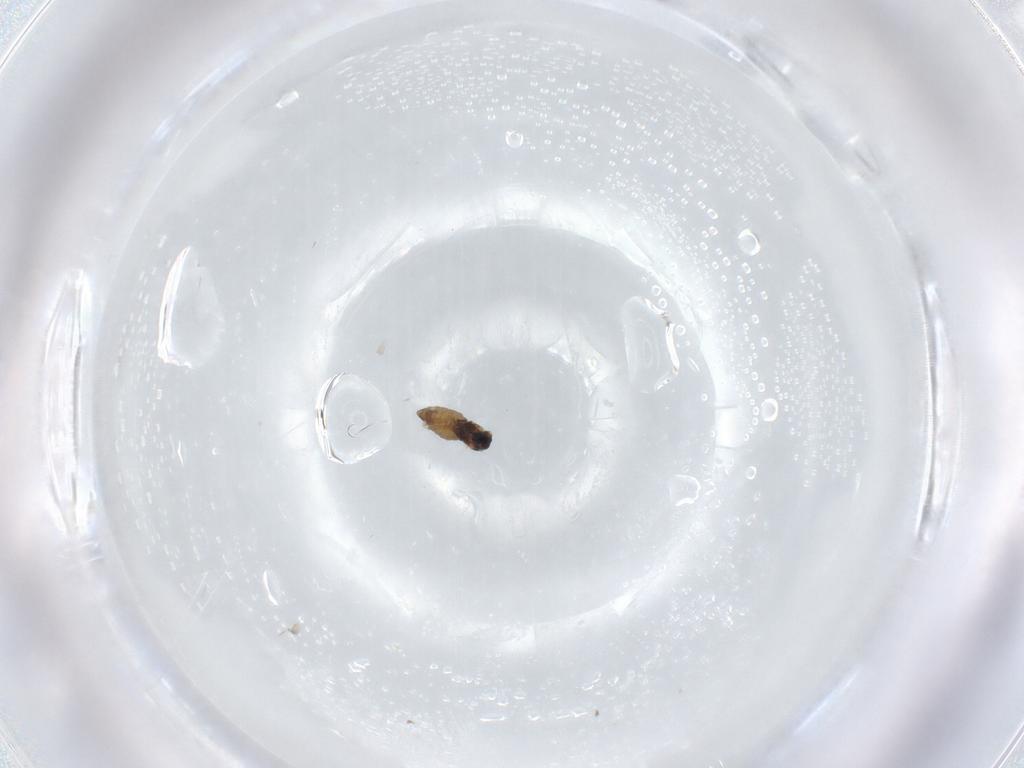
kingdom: Animalia
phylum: Arthropoda
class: Insecta
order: Diptera
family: Cecidomyiidae
